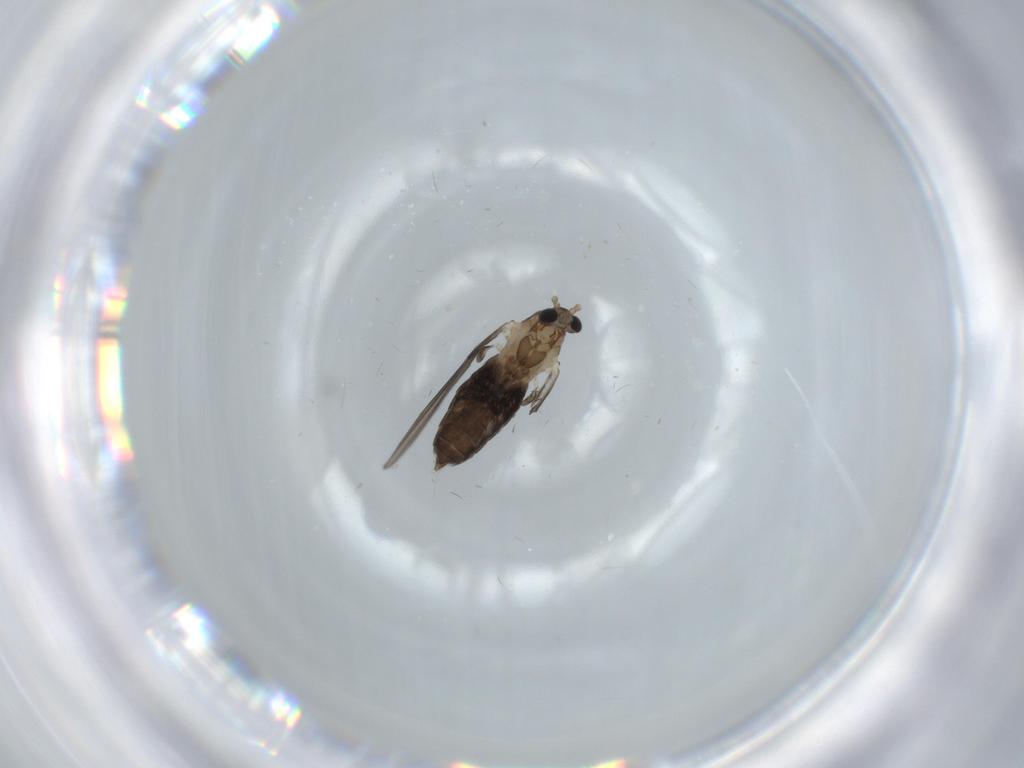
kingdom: Animalia
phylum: Arthropoda
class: Insecta
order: Diptera
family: Psychodidae
